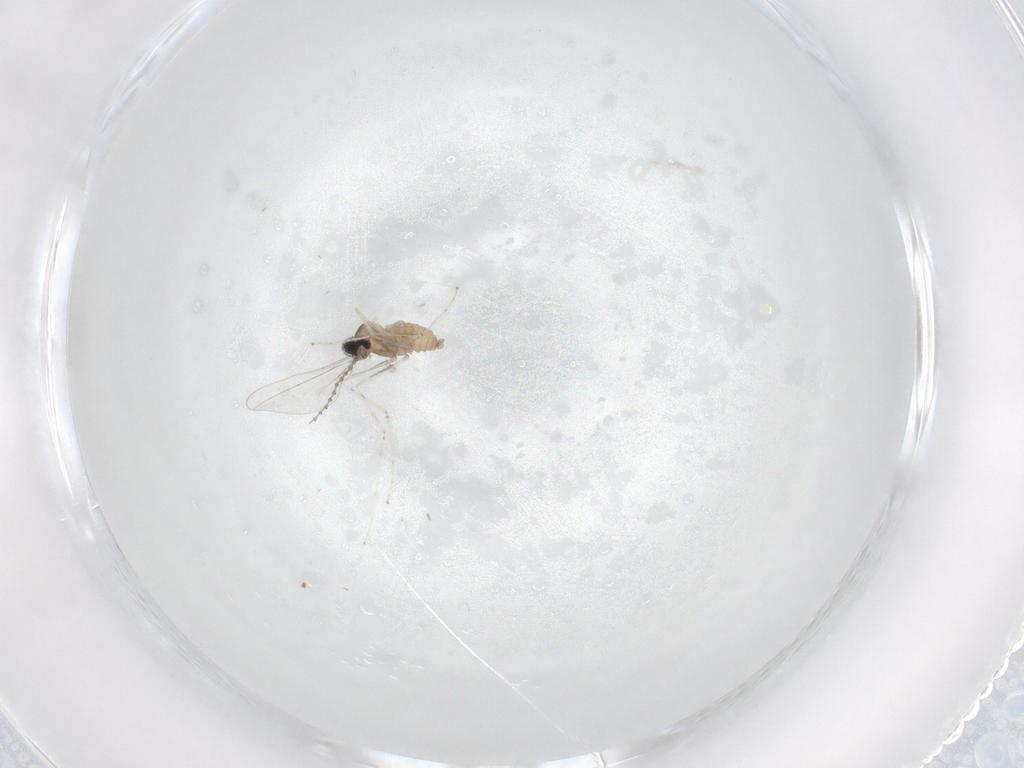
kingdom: Animalia
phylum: Arthropoda
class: Insecta
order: Diptera
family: Cecidomyiidae
